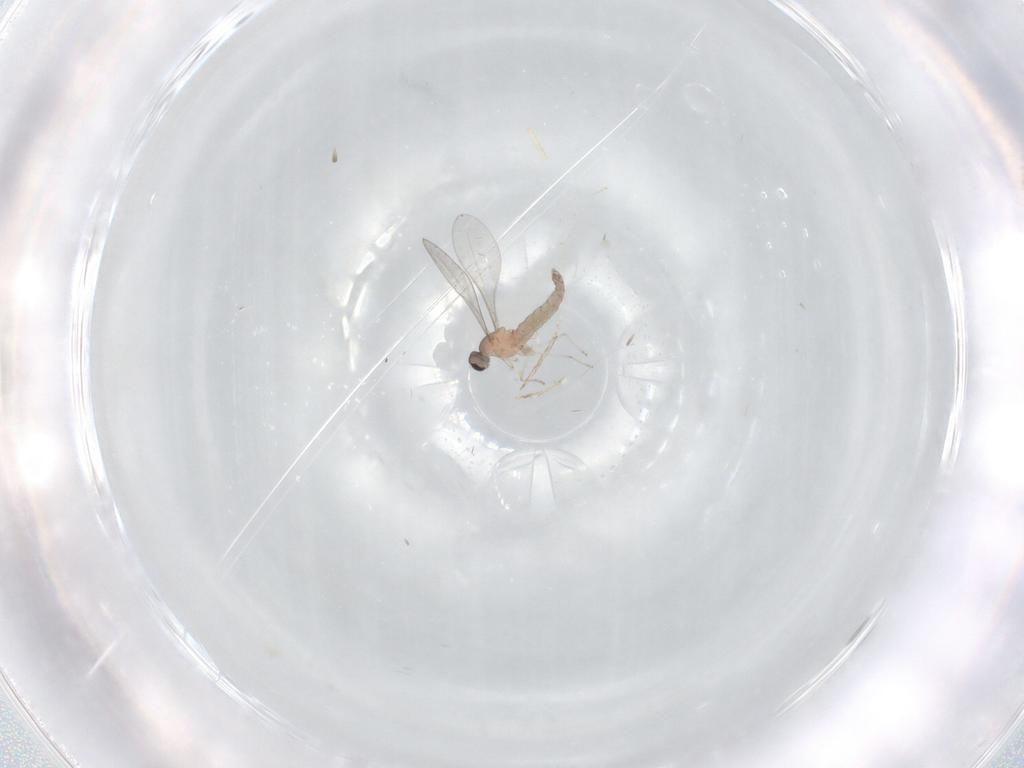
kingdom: Animalia
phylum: Arthropoda
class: Insecta
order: Diptera
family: Cecidomyiidae
